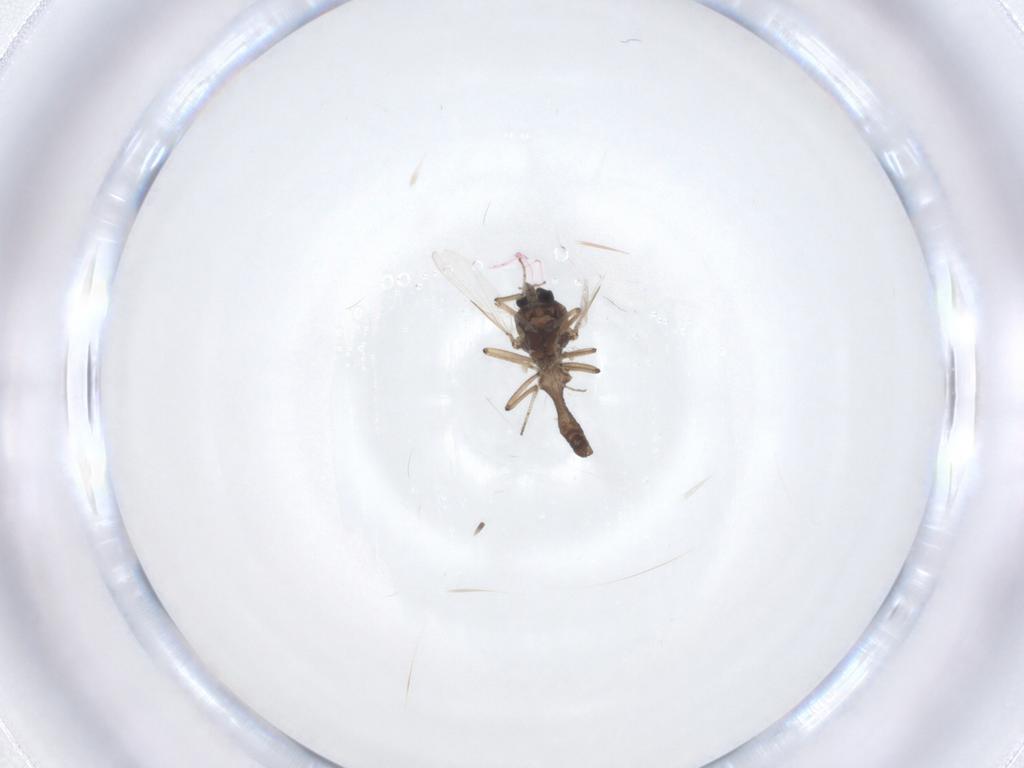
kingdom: Animalia
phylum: Arthropoda
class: Insecta
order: Diptera
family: Ceratopogonidae
